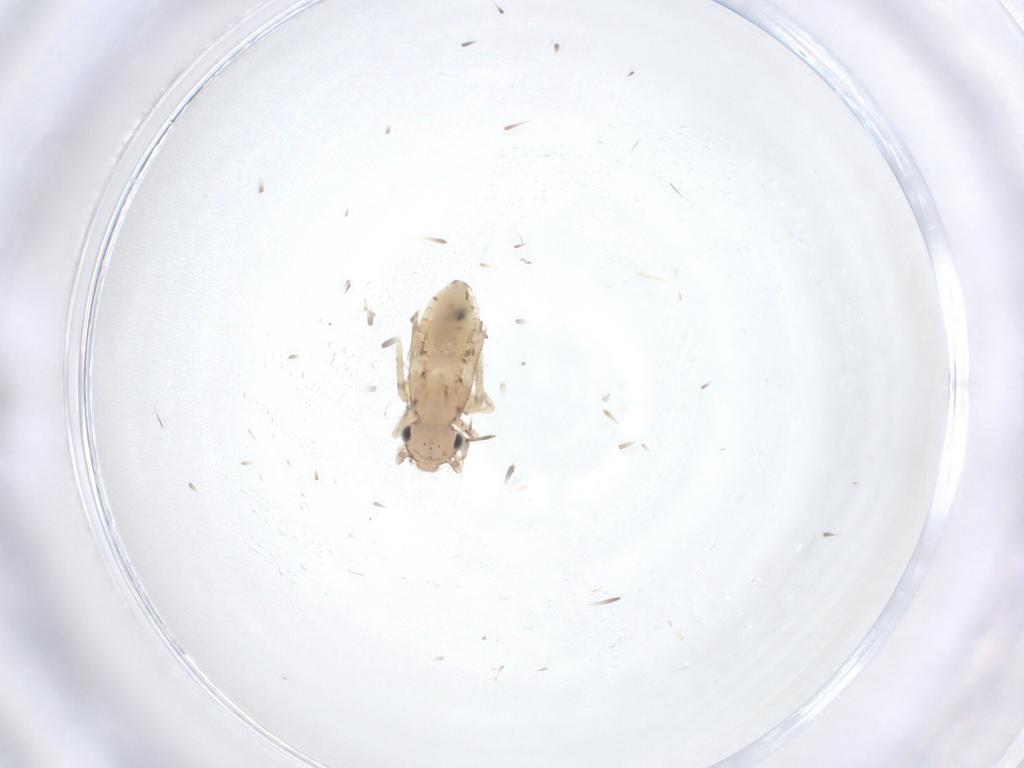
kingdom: Animalia
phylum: Arthropoda
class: Insecta
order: Psocodea
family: Lepidopsocidae
